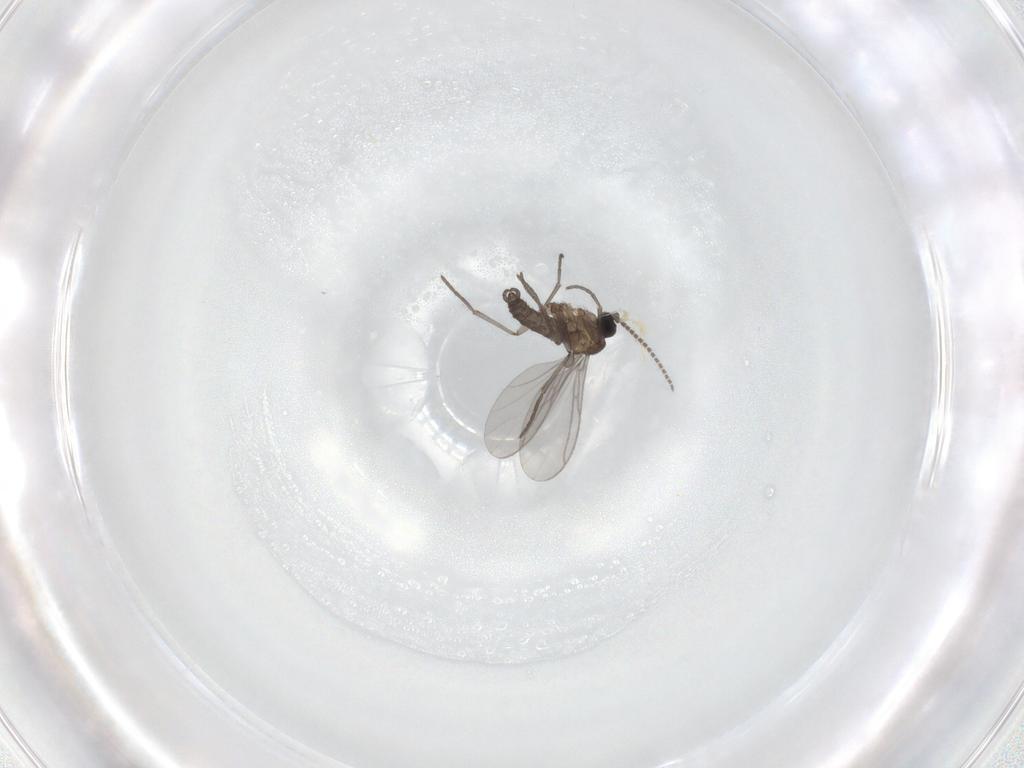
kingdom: Animalia
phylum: Arthropoda
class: Insecta
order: Diptera
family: Sciaridae
